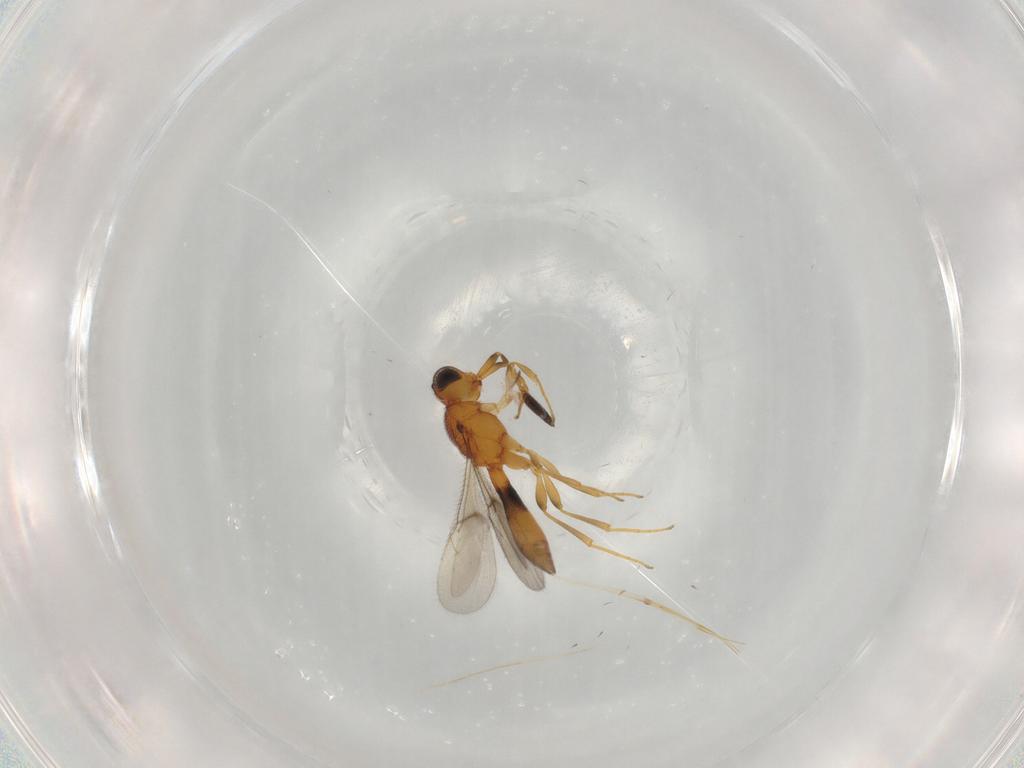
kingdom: Animalia
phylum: Arthropoda
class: Insecta
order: Hymenoptera
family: Scelionidae
